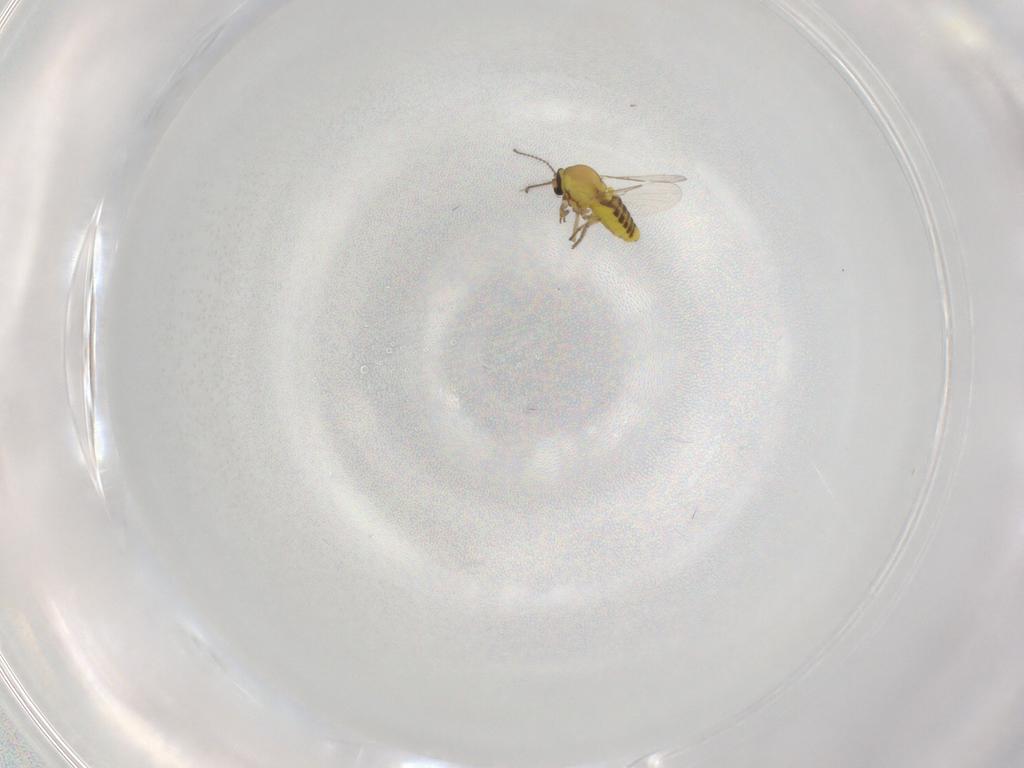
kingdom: Animalia
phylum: Arthropoda
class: Insecta
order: Diptera
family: Ceratopogonidae
